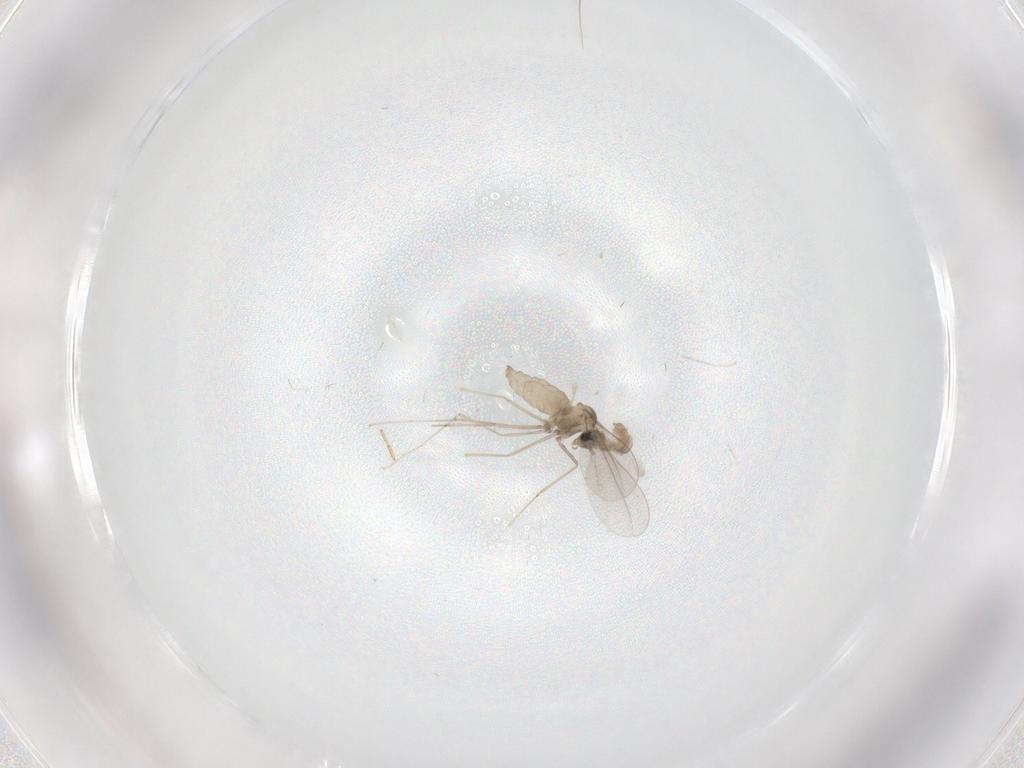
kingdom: Animalia
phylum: Arthropoda
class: Insecta
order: Diptera
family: Cecidomyiidae
